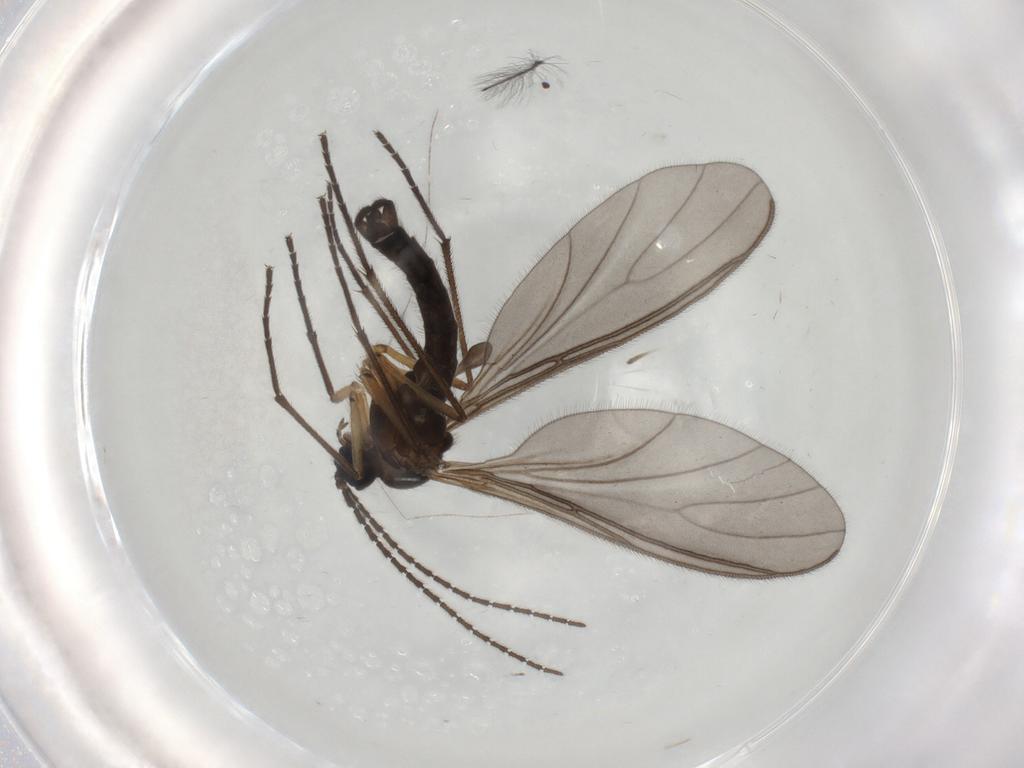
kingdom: Animalia
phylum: Arthropoda
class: Insecta
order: Diptera
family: Sciaridae
